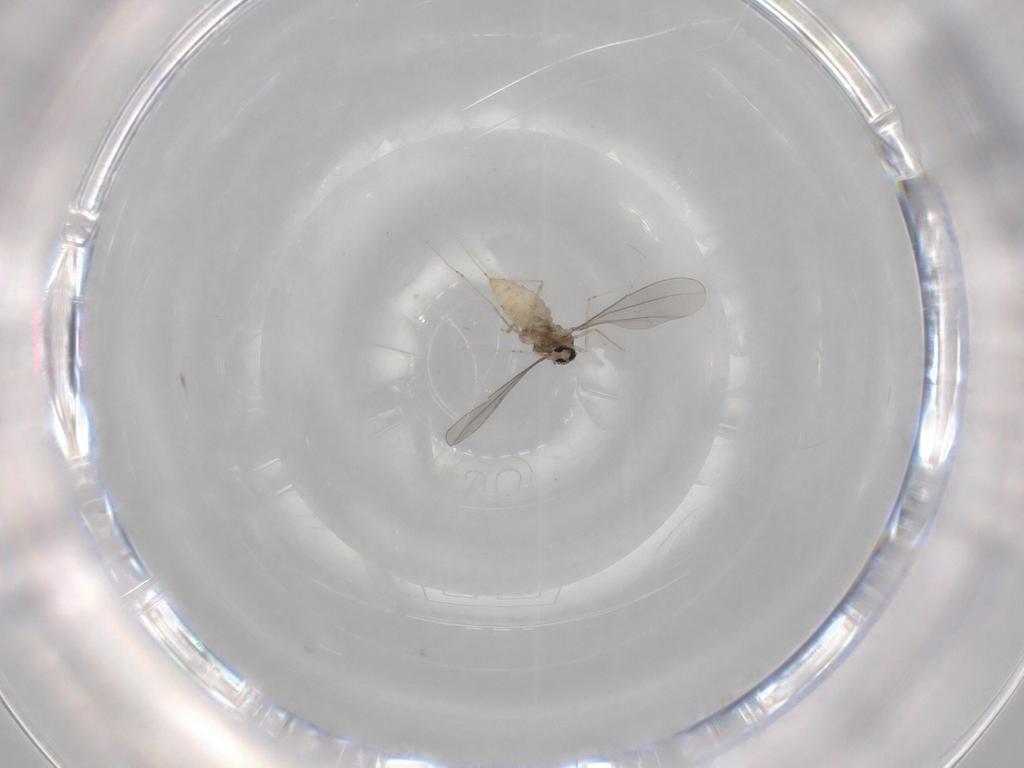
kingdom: Animalia
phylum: Arthropoda
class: Insecta
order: Diptera
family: Cecidomyiidae
